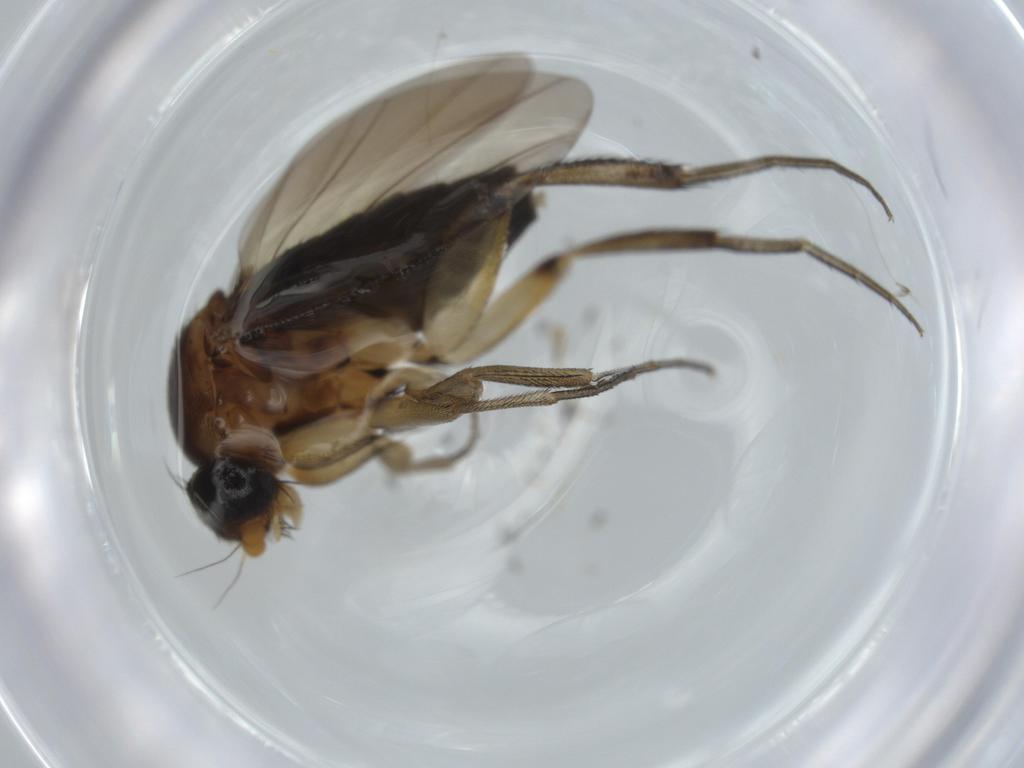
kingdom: Animalia
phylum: Arthropoda
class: Insecta
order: Diptera
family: Phoridae
